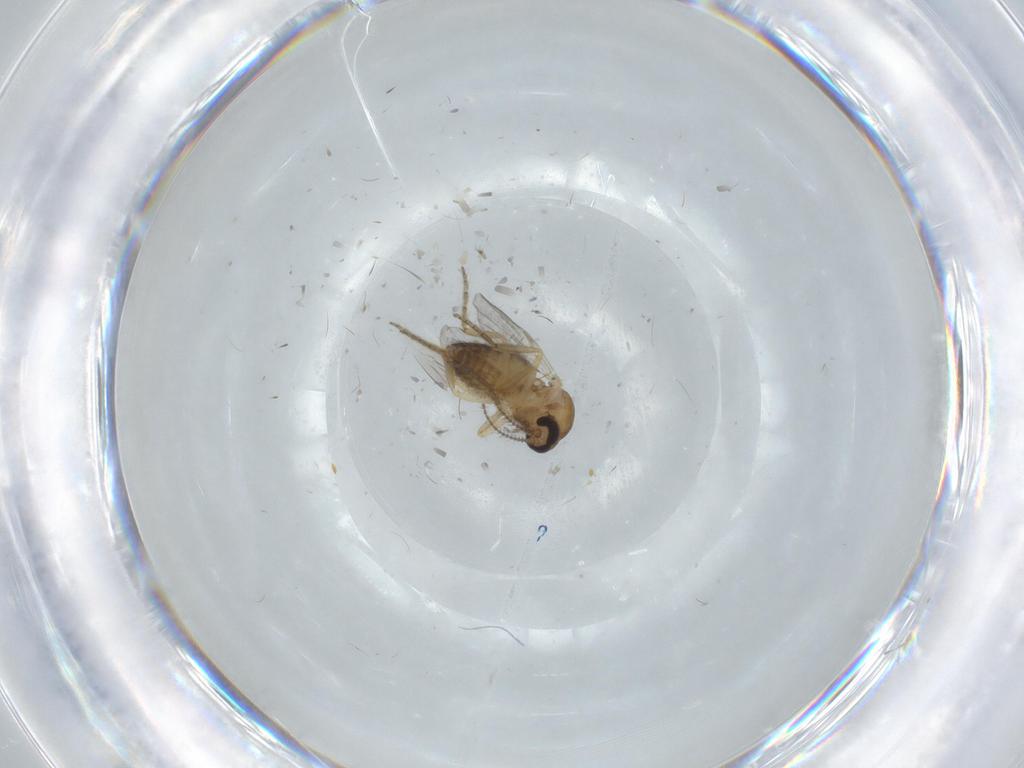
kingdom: Animalia
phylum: Arthropoda
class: Insecta
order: Diptera
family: Ceratopogonidae
